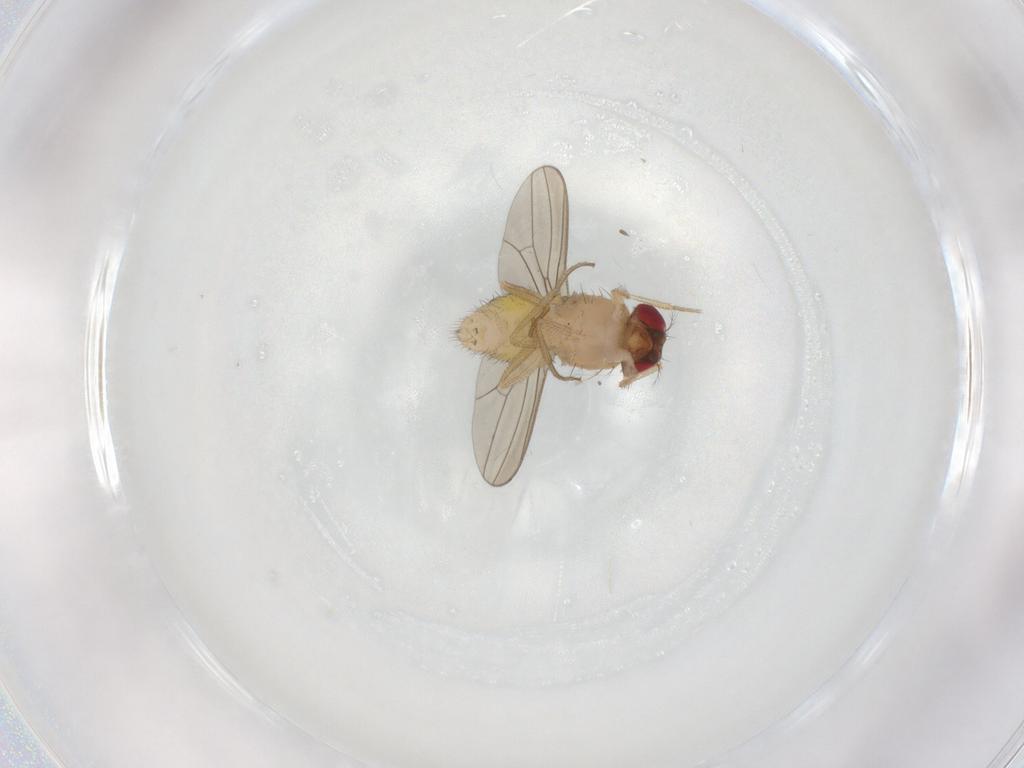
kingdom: Animalia
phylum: Arthropoda
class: Insecta
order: Diptera
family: Drosophilidae
